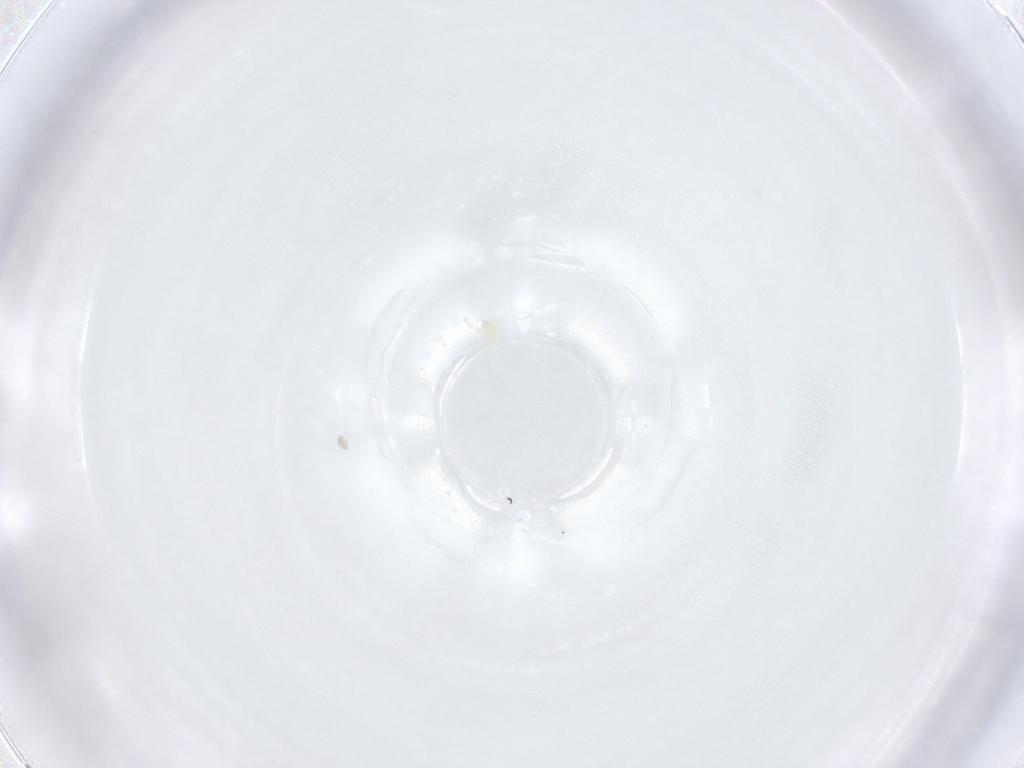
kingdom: Animalia
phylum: Arthropoda
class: Arachnida
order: Trombidiformes
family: Eupodidae
